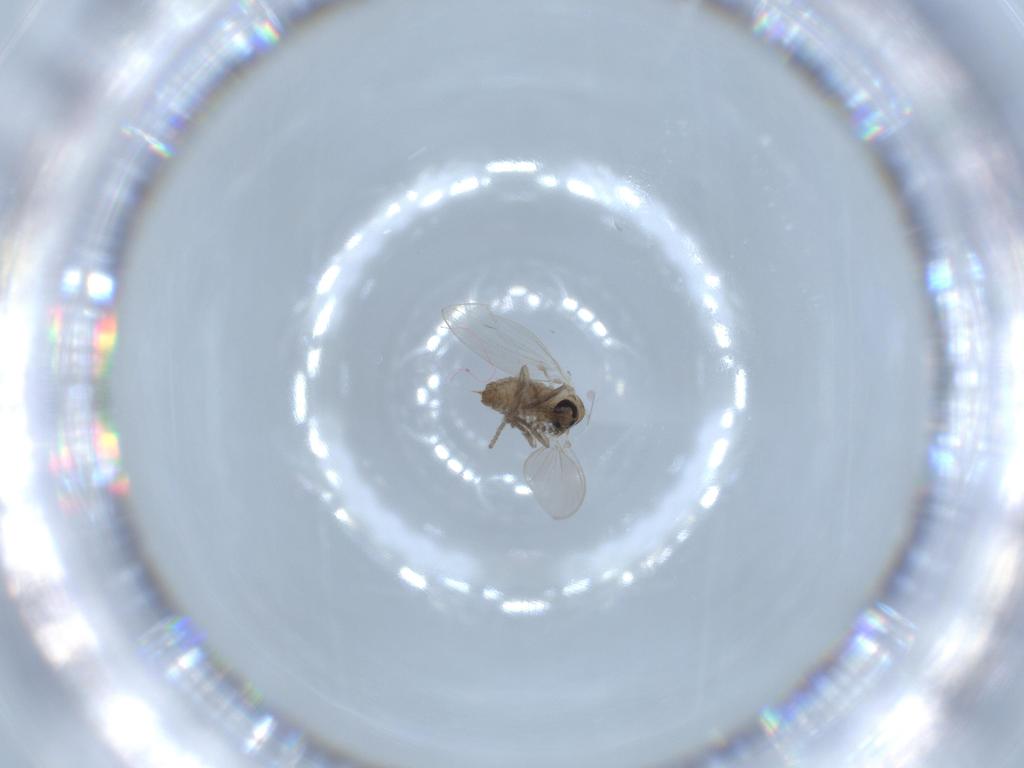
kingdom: Animalia
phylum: Arthropoda
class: Insecta
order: Diptera
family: Psychodidae
